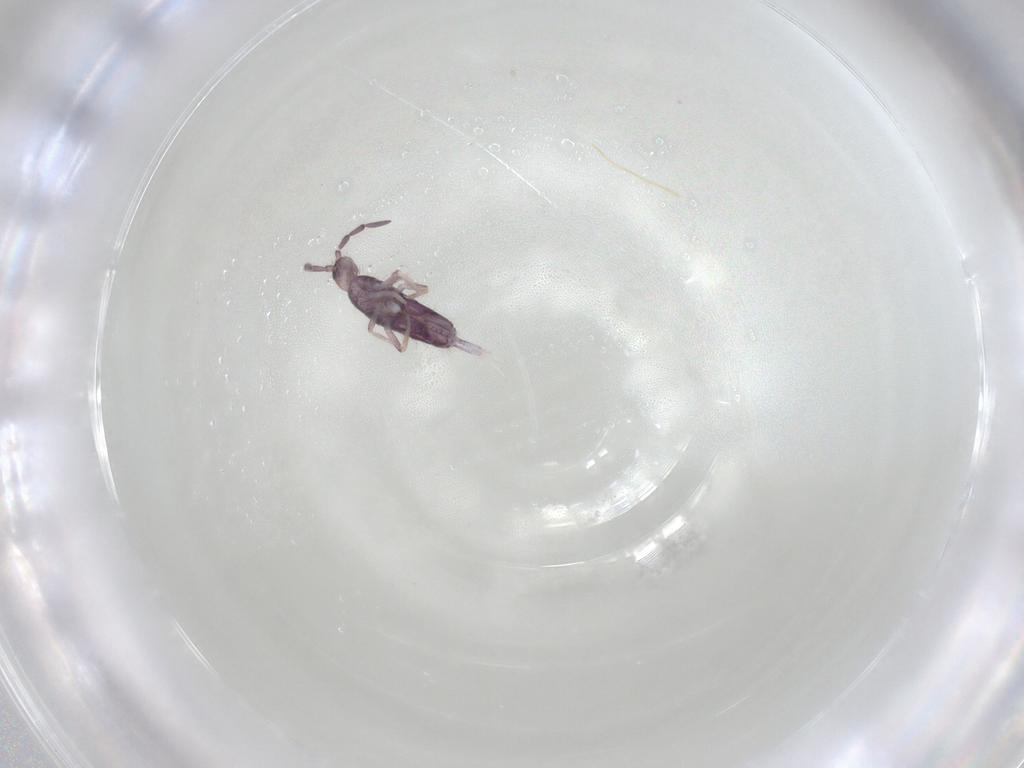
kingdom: Animalia
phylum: Arthropoda
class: Collembola
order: Entomobryomorpha
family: Entomobryidae
